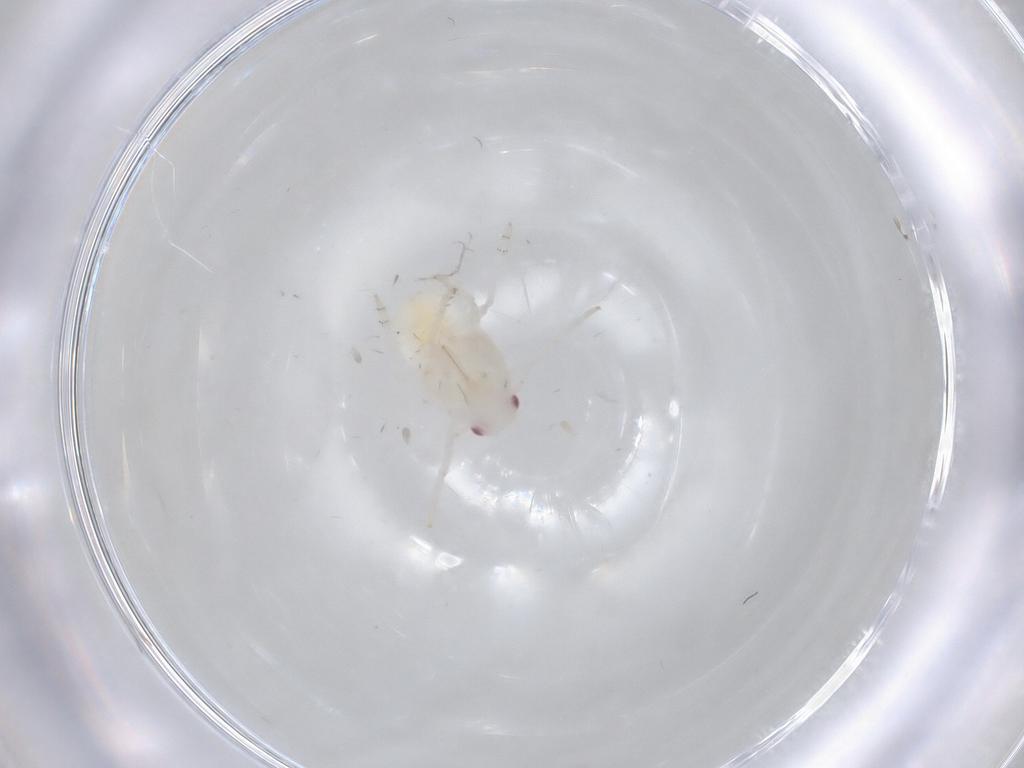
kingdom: Animalia
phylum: Arthropoda
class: Insecta
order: Hemiptera
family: Flatidae
